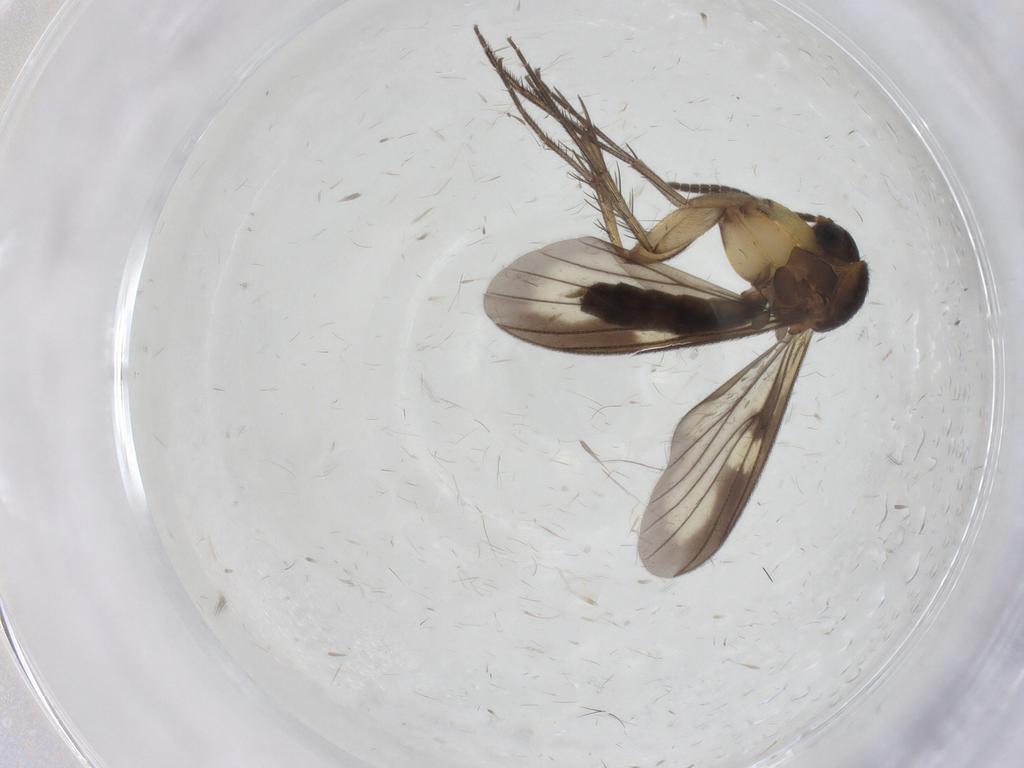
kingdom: Animalia
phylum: Arthropoda
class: Insecta
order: Diptera
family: Mycetophilidae
